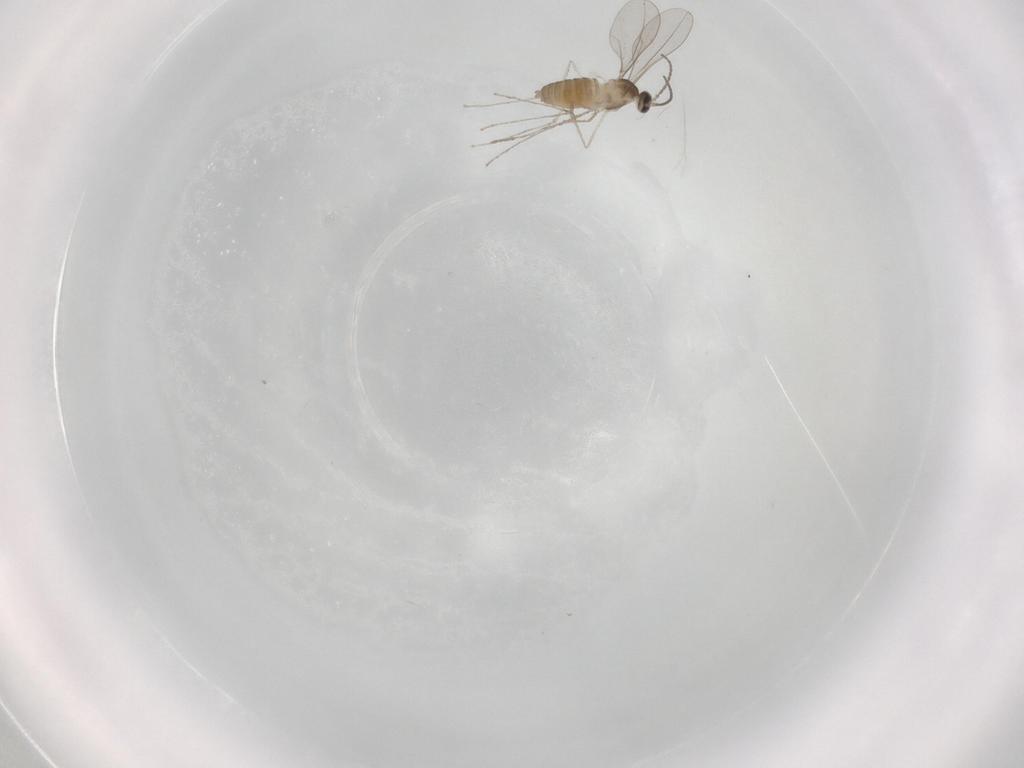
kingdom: Animalia
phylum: Arthropoda
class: Insecta
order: Diptera
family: Cecidomyiidae
